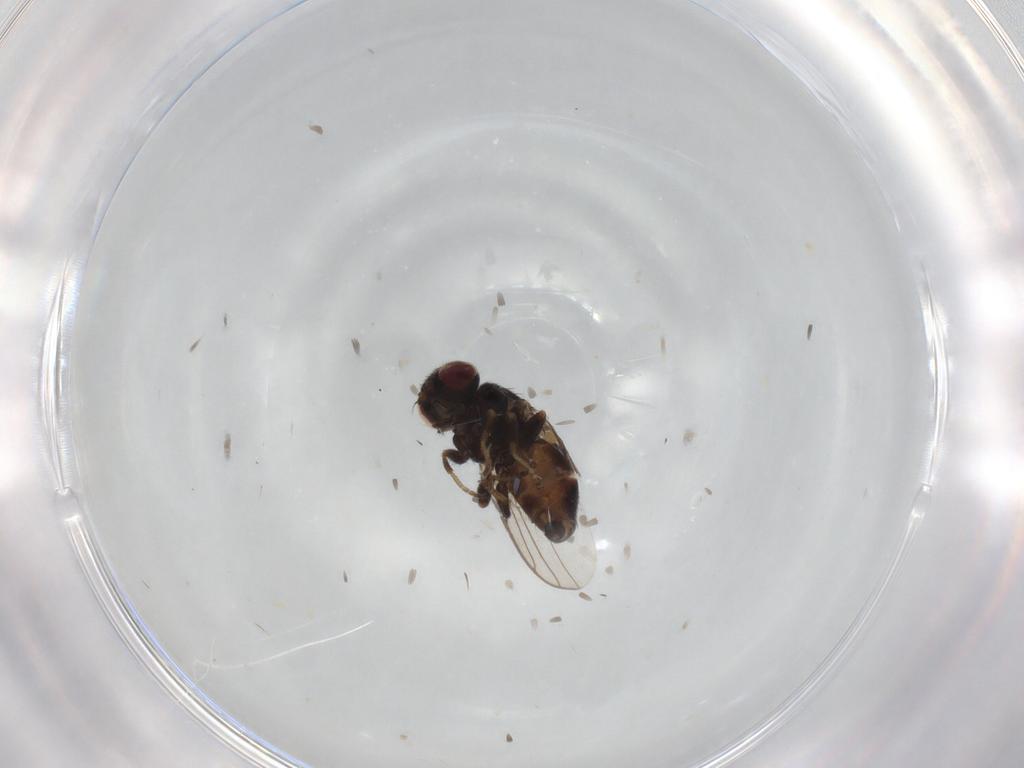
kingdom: Animalia
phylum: Arthropoda
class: Insecta
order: Diptera
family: Chloropidae
